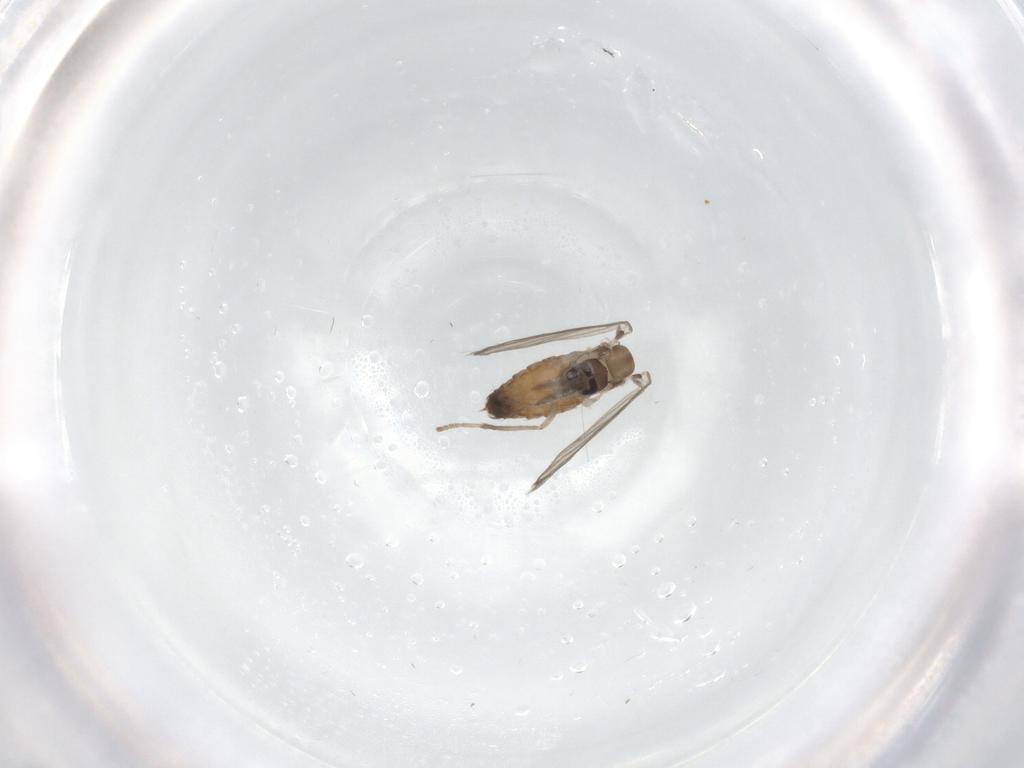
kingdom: Animalia
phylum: Arthropoda
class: Insecta
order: Diptera
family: Psychodidae
